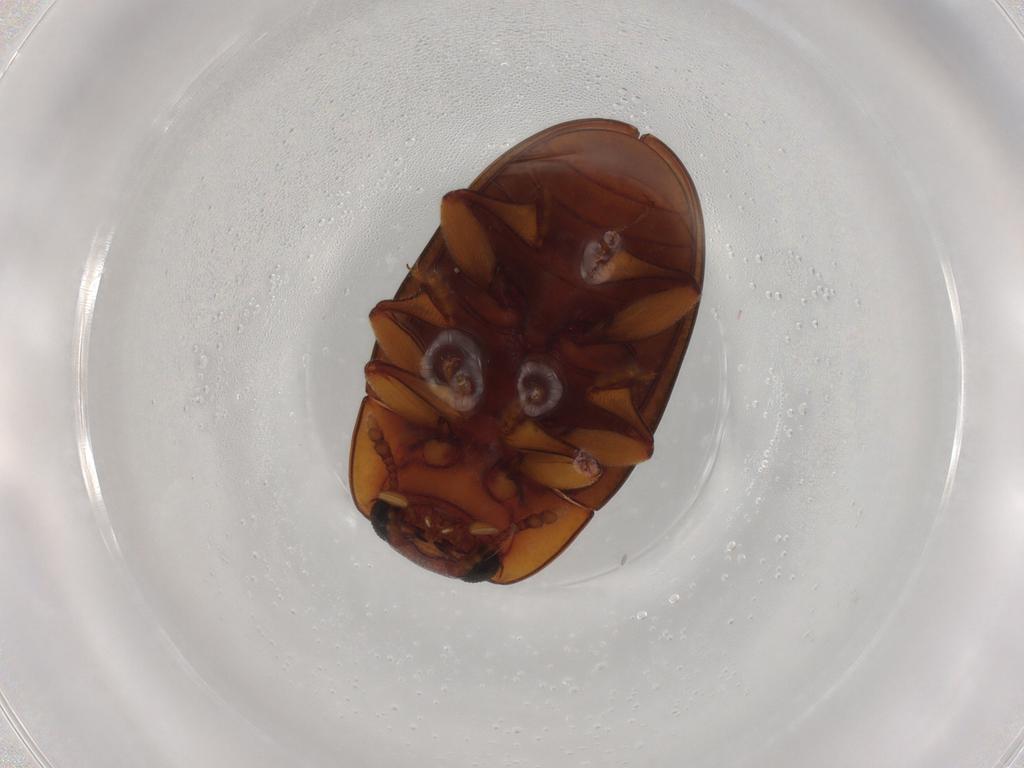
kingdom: Animalia
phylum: Arthropoda
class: Insecta
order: Coleoptera
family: Erotylidae
